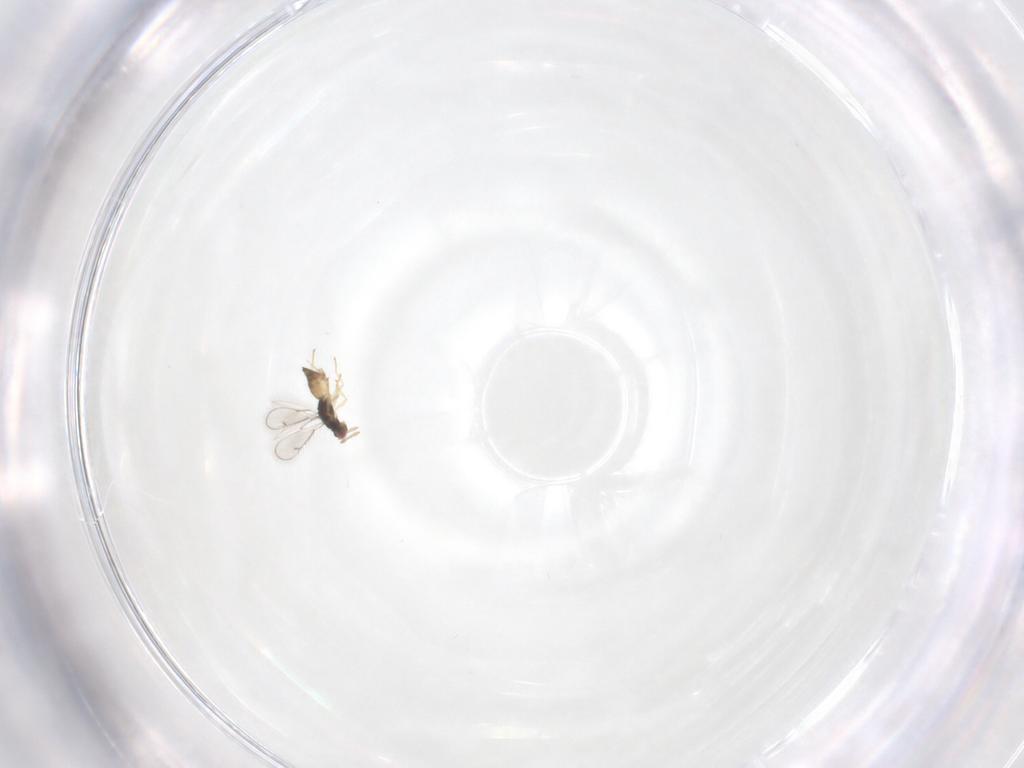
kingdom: Animalia
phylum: Arthropoda
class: Insecta
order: Hymenoptera
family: Eulophidae
